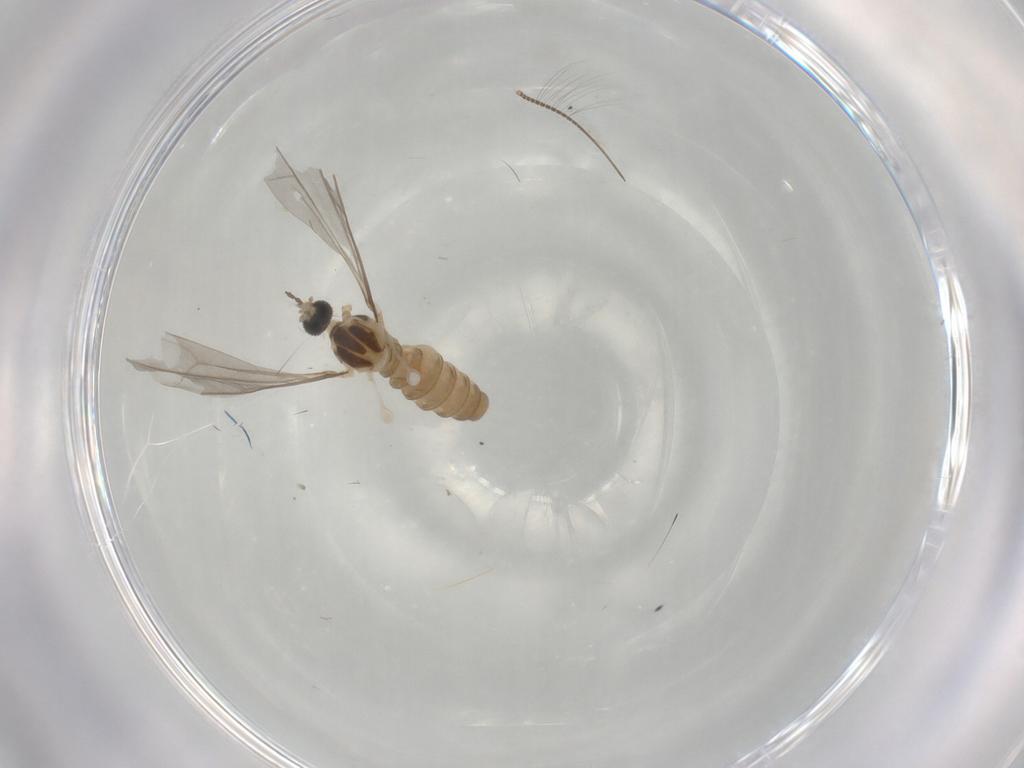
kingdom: Animalia
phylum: Arthropoda
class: Insecta
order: Diptera
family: Cecidomyiidae
